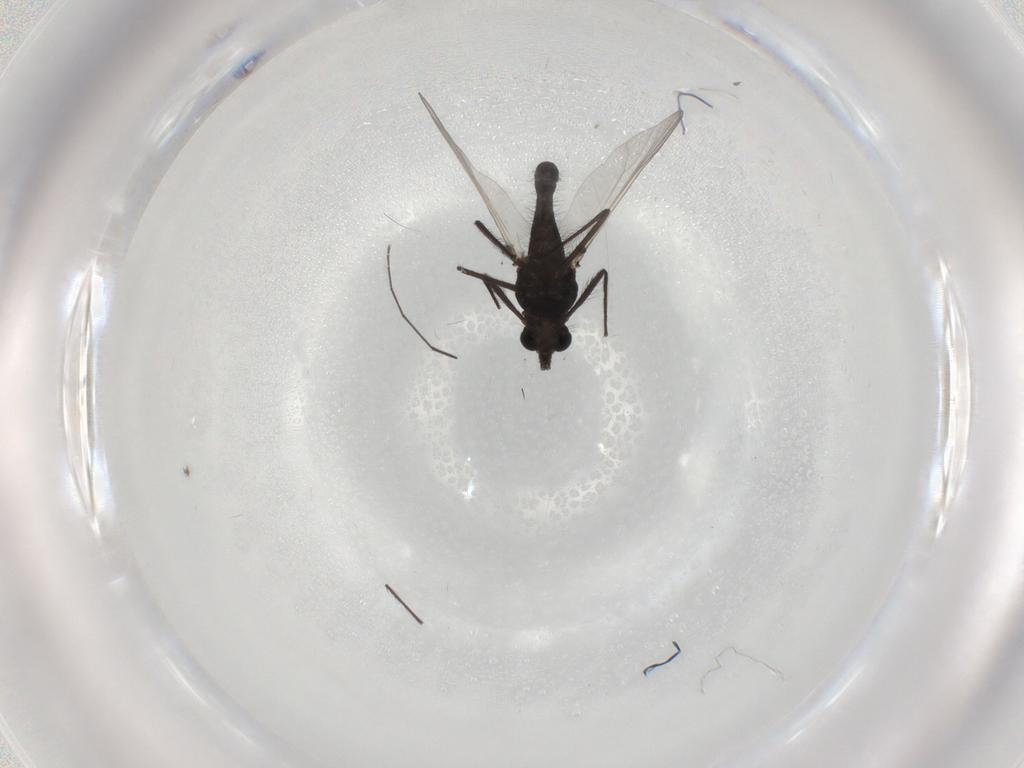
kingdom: Animalia
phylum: Arthropoda
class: Insecta
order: Diptera
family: Chironomidae
